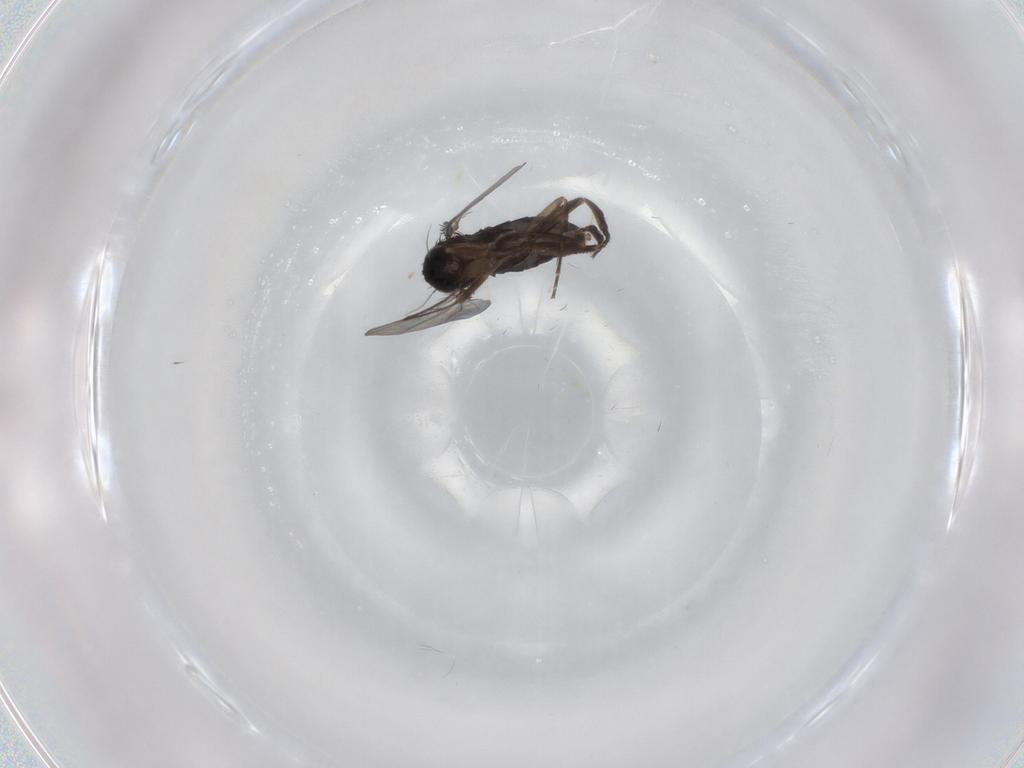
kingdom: Animalia
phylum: Arthropoda
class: Insecta
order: Diptera
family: Phoridae
